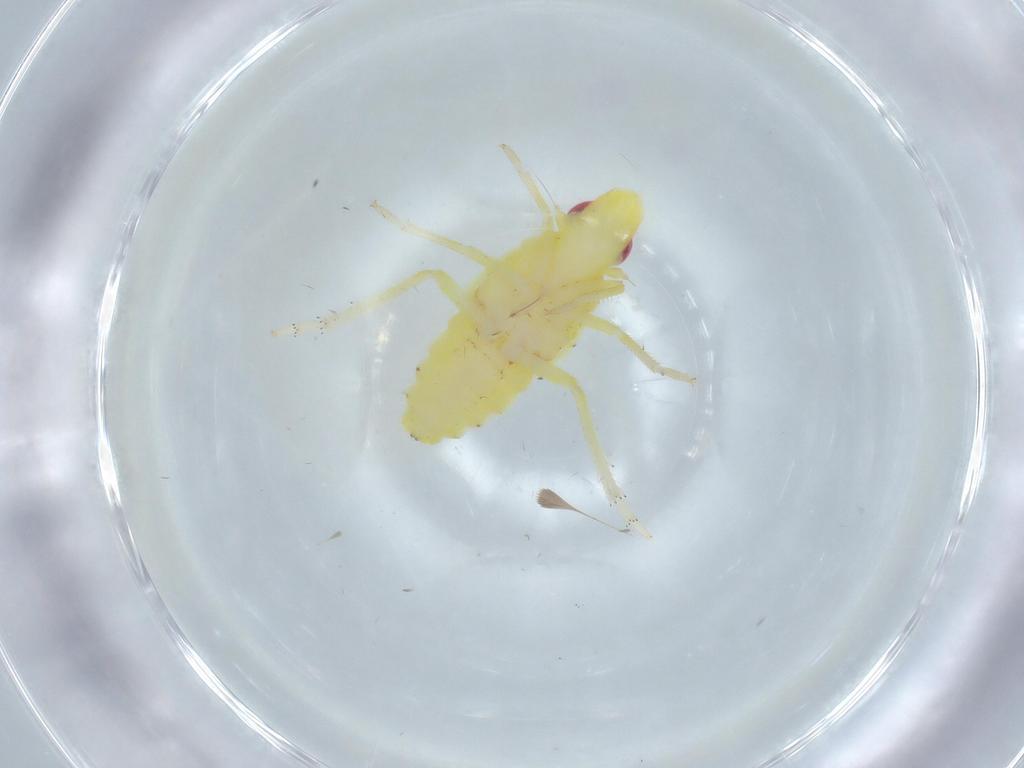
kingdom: Animalia
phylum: Arthropoda
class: Insecta
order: Hemiptera
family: Tropiduchidae
